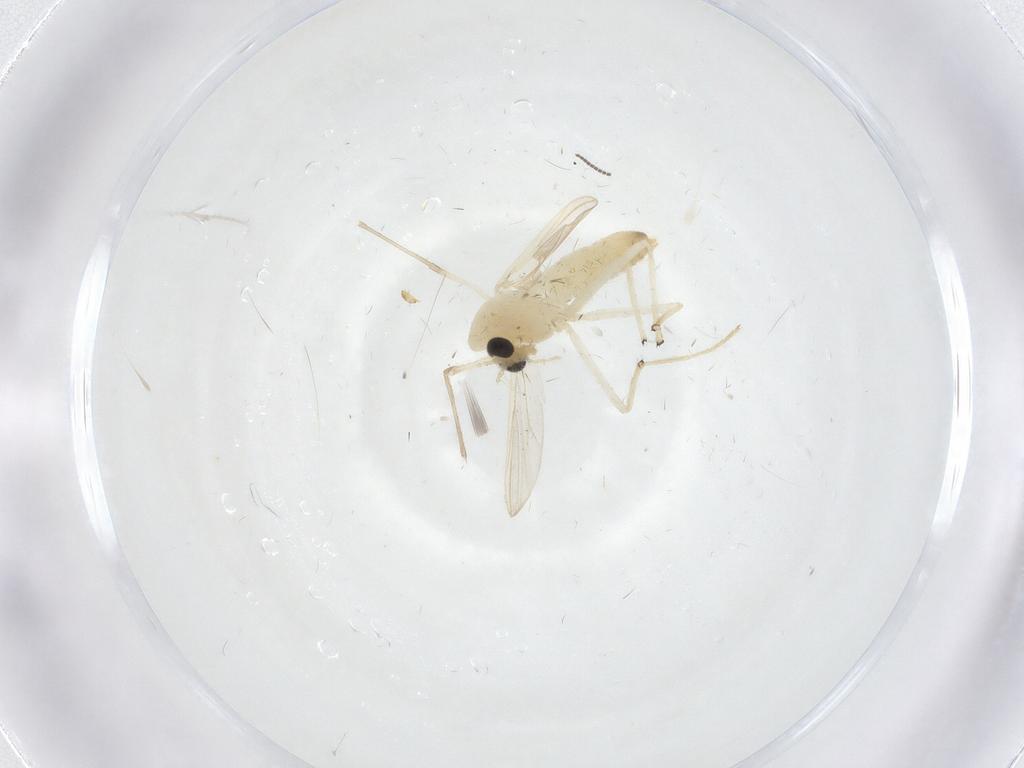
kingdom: Animalia
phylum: Arthropoda
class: Insecta
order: Diptera
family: Chironomidae
